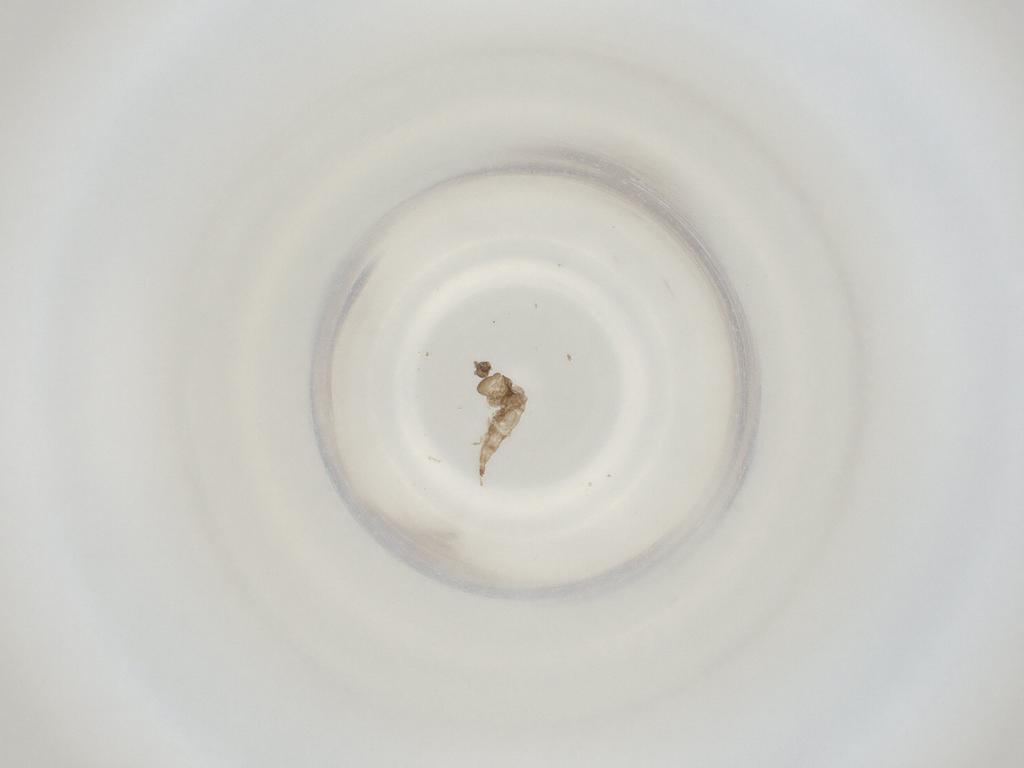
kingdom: Animalia
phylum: Arthropoda
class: Insecta
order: Diptera
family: Cecidomyiidae
